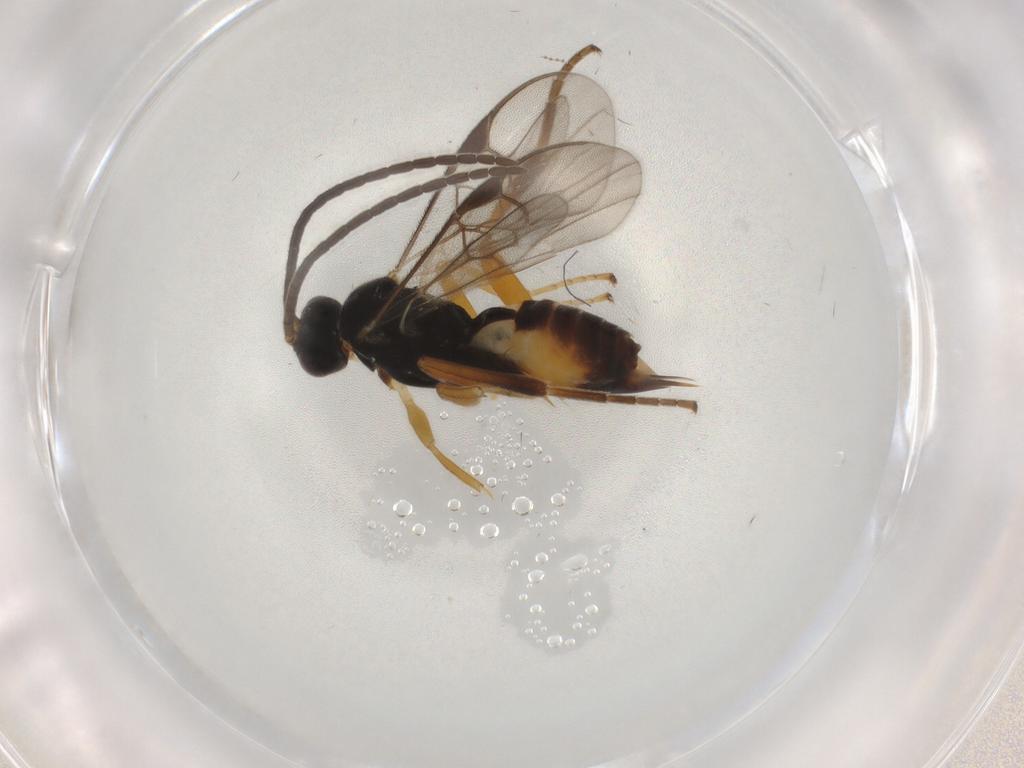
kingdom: Animalia
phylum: Arthropoda
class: Insecta
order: Hymenoptera
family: Braconidae
